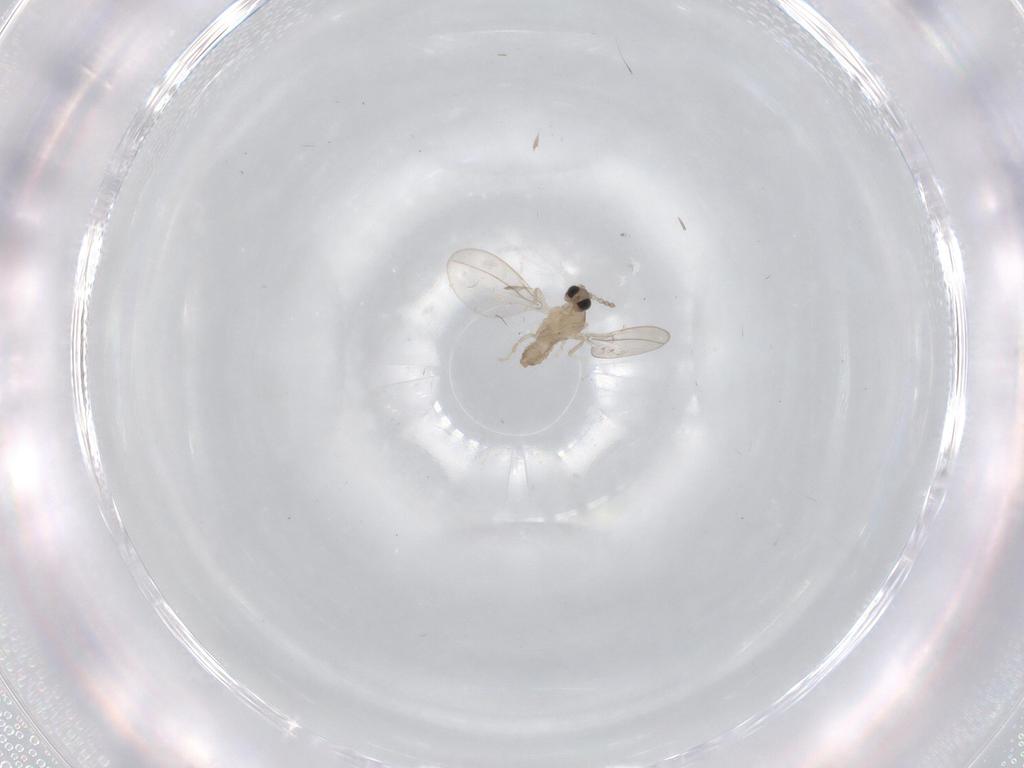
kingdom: Animalia
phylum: Arthropoda
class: Insecta
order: Diptera
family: Cecidomyiidae
